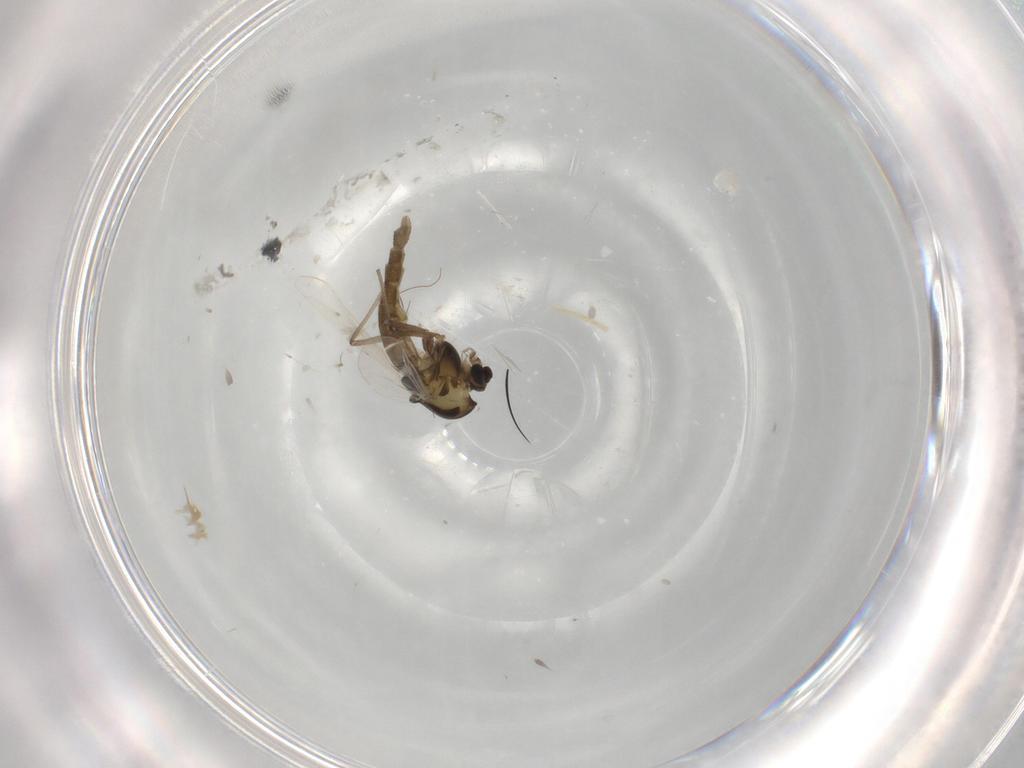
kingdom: Animalia
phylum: Arthropoda
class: Insecta
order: Diptera
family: Chironomidae
